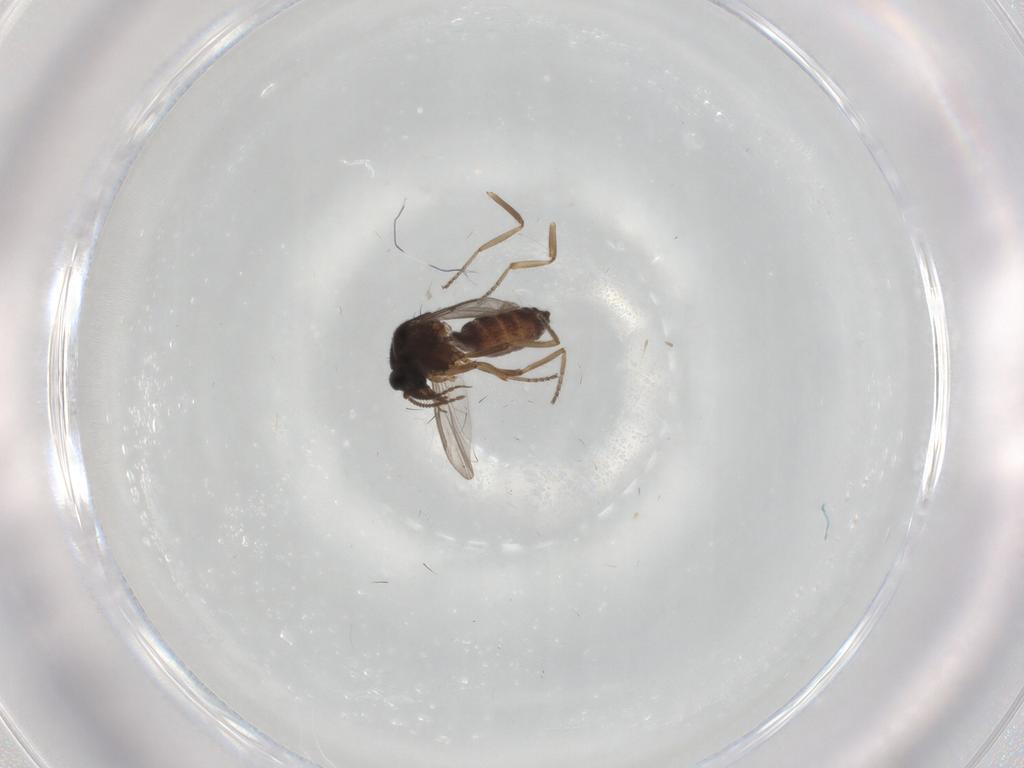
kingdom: Animalia
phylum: Arthropoda
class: Insecta
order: Diptera
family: Ceratopogonidae
